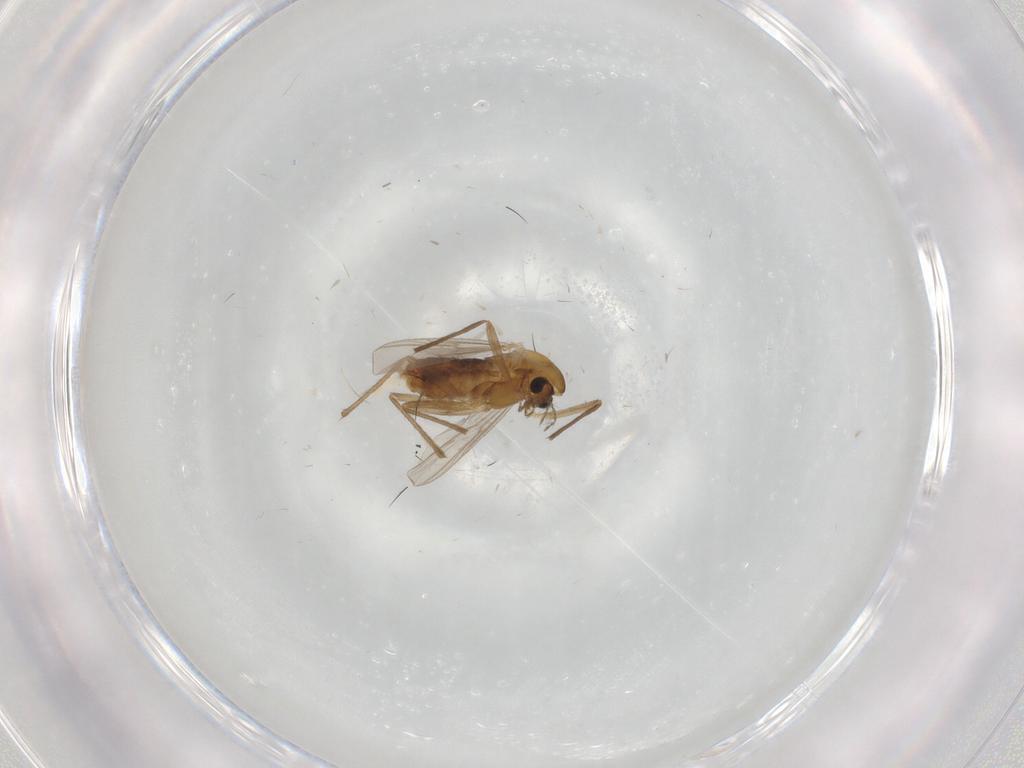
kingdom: Animalia
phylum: Arthropoda
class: Insecta
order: Diptera
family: Chironomidae
